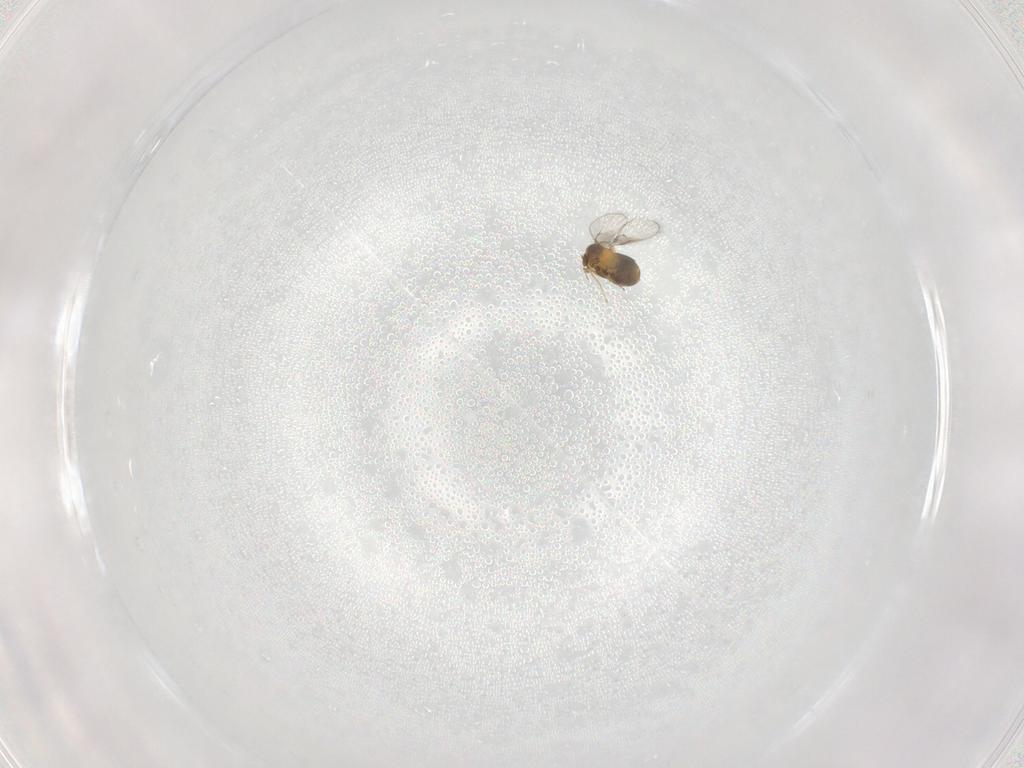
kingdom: Animalia
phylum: Arthropoda
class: Insecta
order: Hymenoptera
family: Trichogrammatidae
